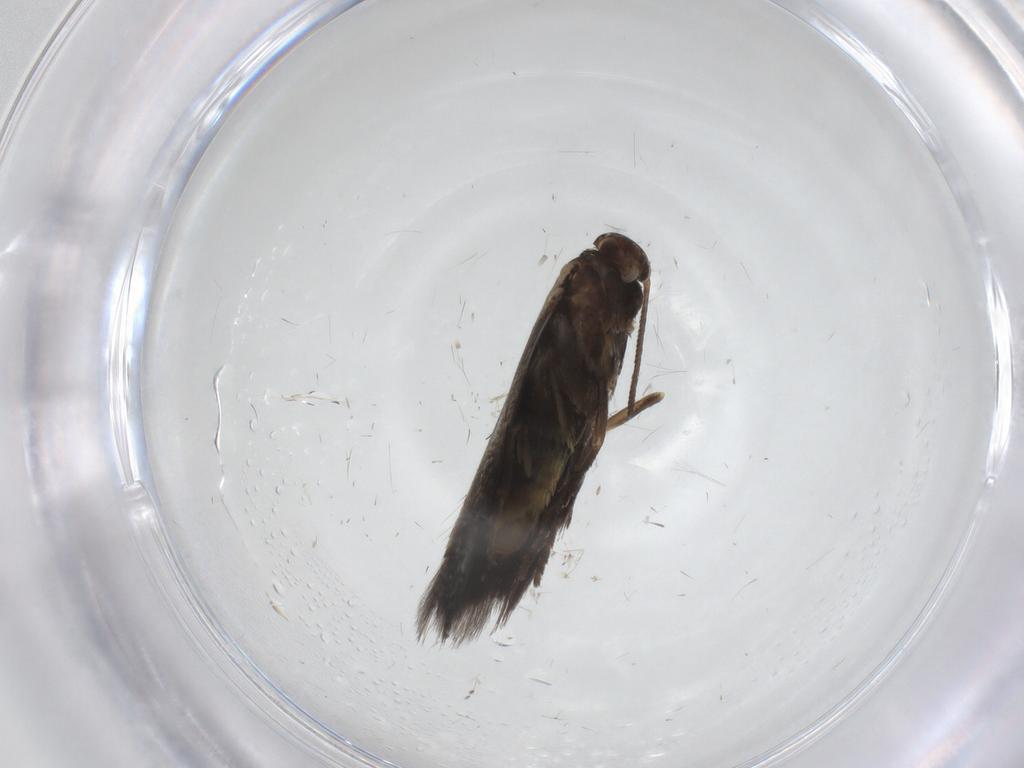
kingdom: Animalia
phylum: Arthropoda
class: Insecta
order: Lepidoptera
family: Elachistidae
